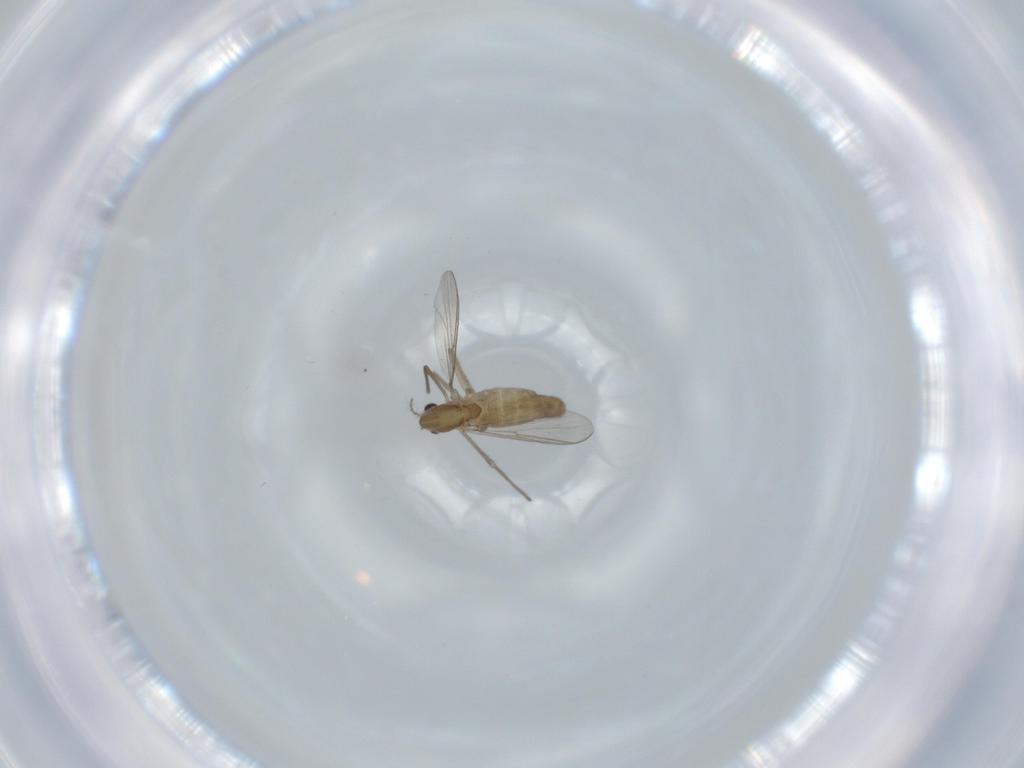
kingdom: Animalia
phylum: Arthropoda
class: Insecta
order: Diptera
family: Chironomidae
